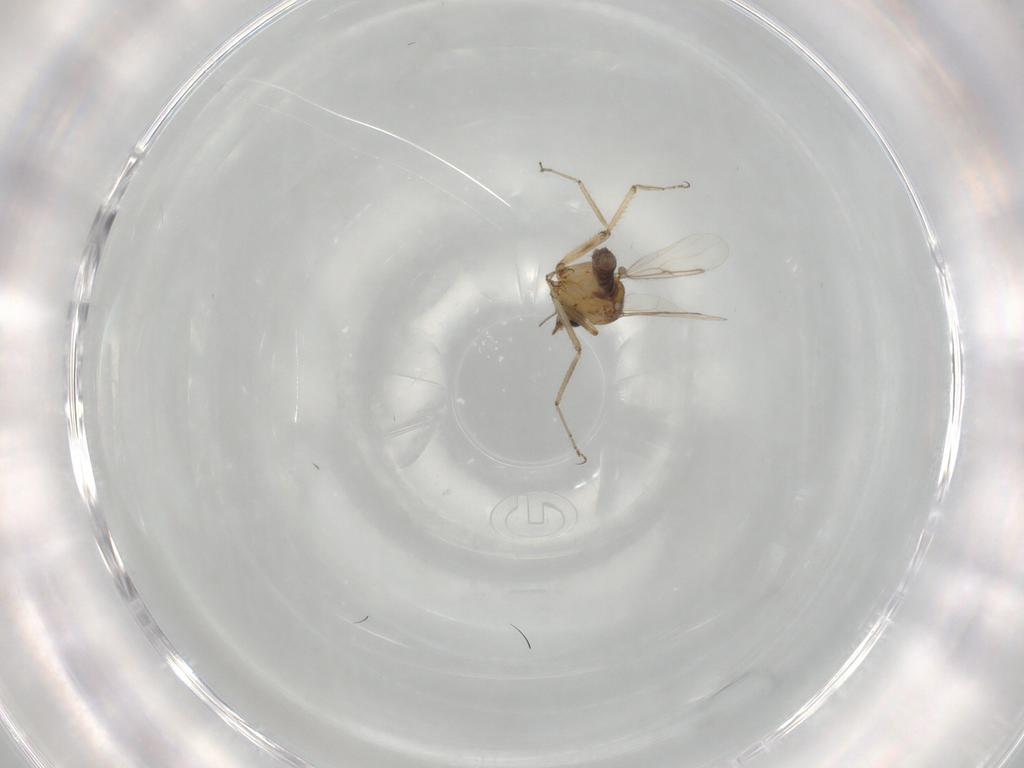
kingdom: Animalia
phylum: Arthropoda
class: Insecta
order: Diptera
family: Ceratopogonidae
